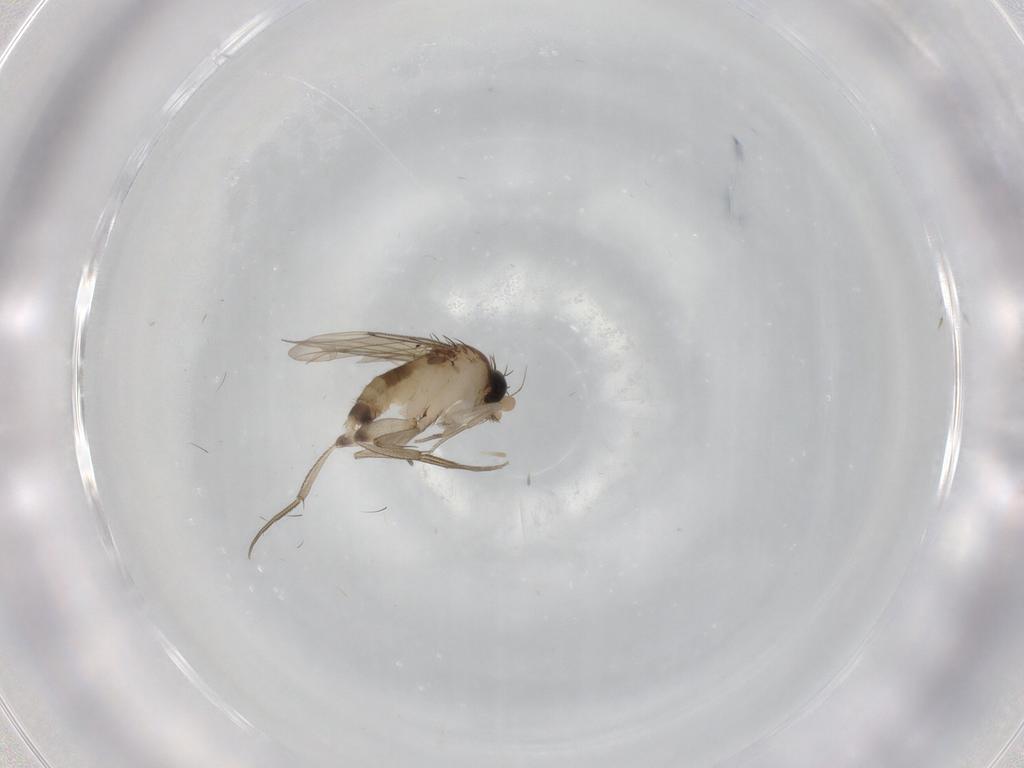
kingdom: Animalia
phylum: Arthropoda
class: Insecta
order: Diptera
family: Phoridae
